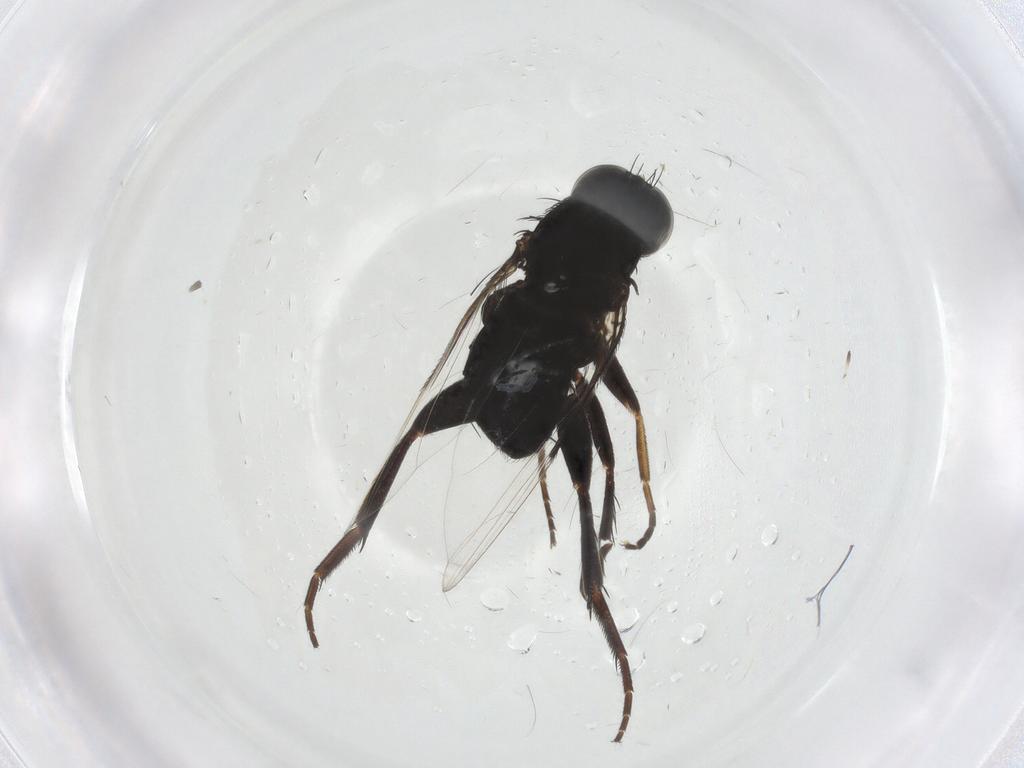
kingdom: Animalia
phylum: Arthropoda
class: Insecta
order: Diptera
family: Phoridae
